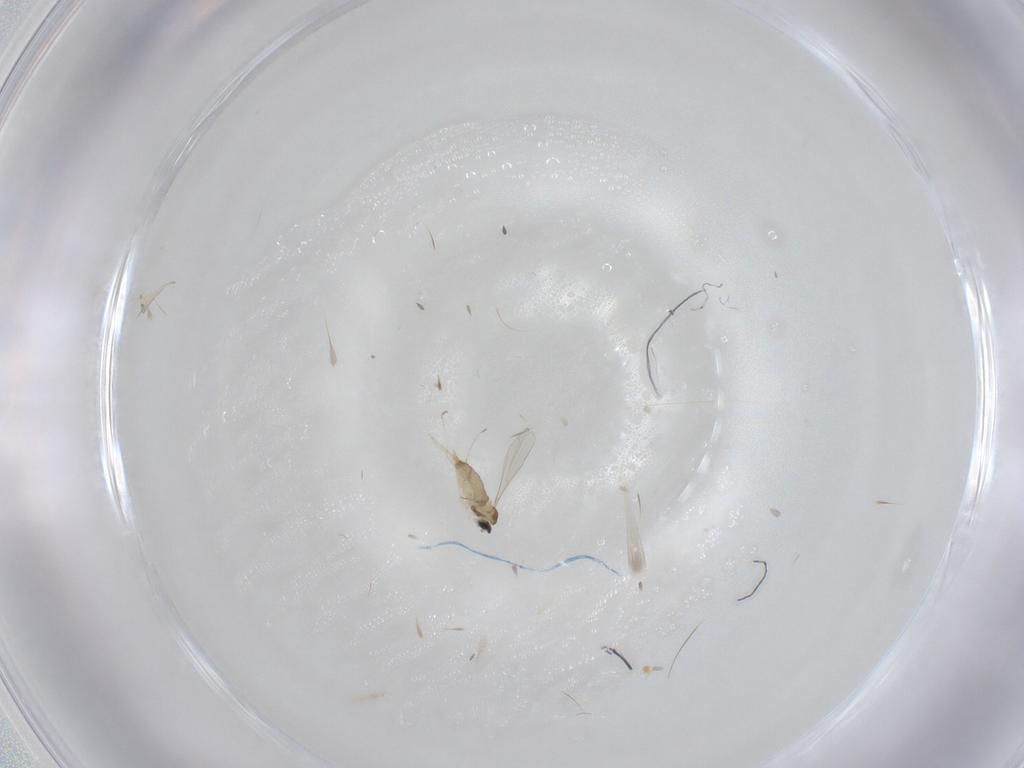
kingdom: Animalia
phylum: Arthropoda
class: Insecta
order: Diptera
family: Cecidomyiidae
